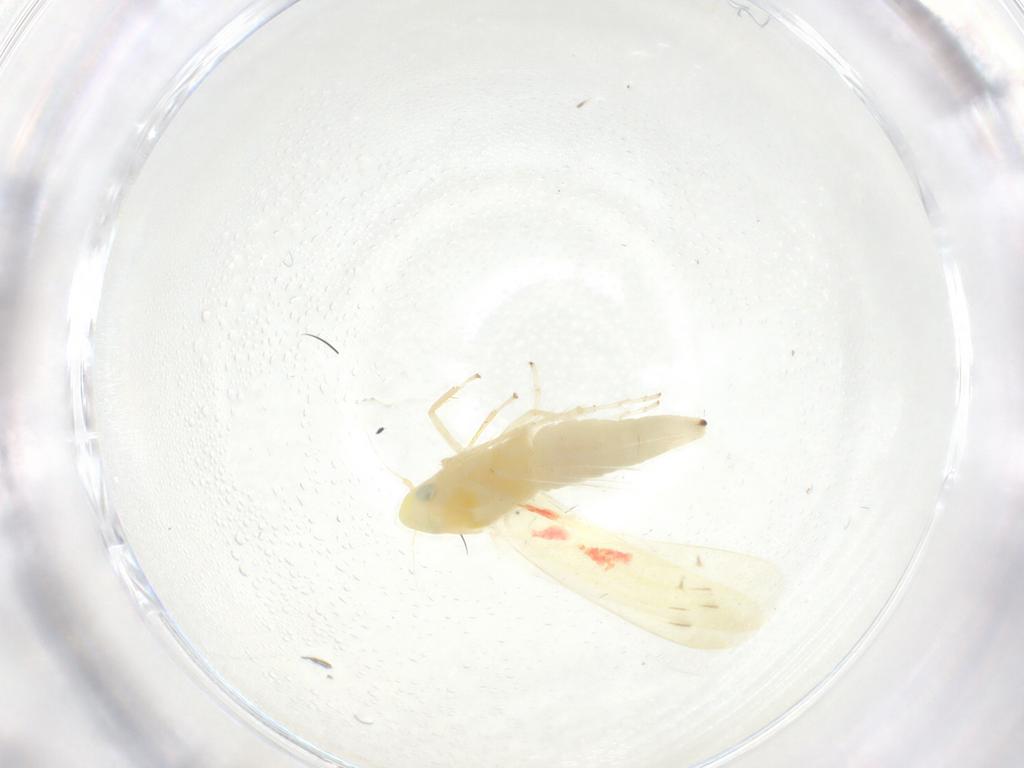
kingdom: Animalia
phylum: Arthropoda
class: Insecta
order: Hemiptera
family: Cicadellidae
